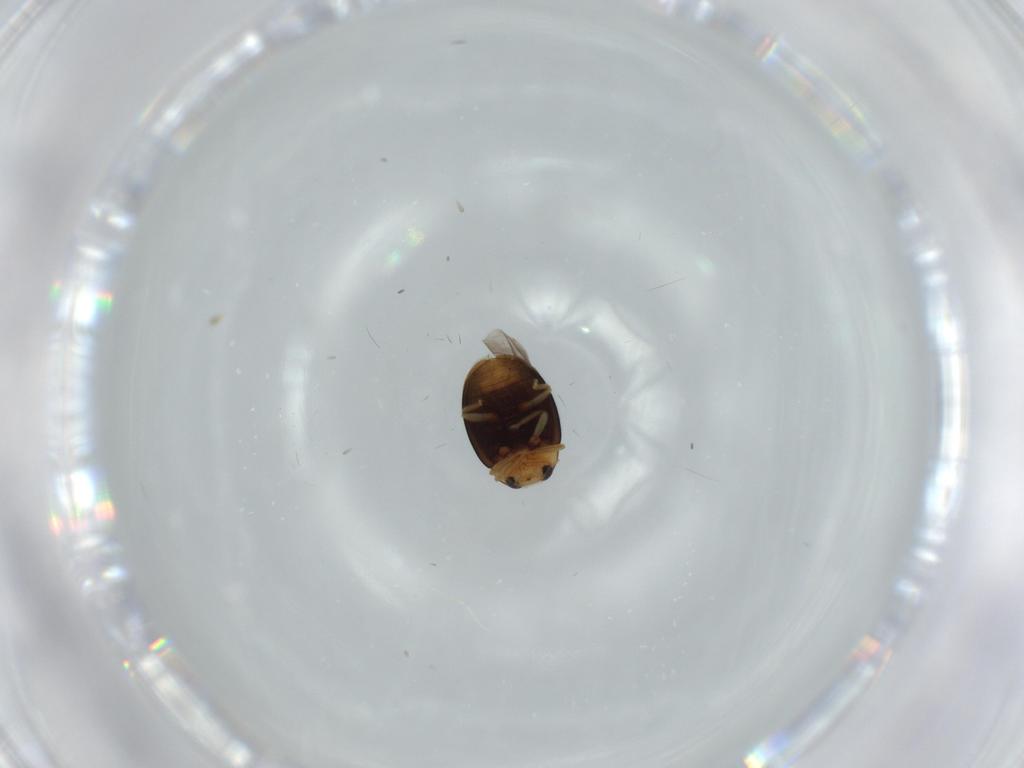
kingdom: Animalia
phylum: Arthropoda
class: Insecta
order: Coleoptera
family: Coccinellidae
